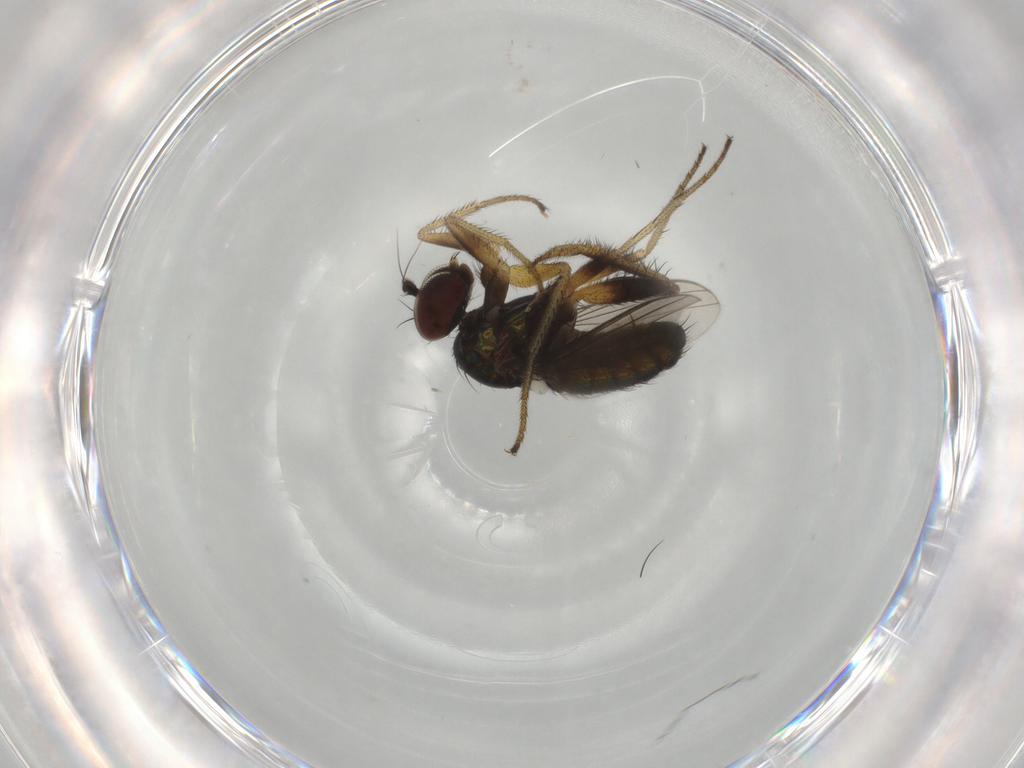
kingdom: Animalia
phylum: Arthropoda
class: Insecta
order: Diptera
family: Dolichopodidae
